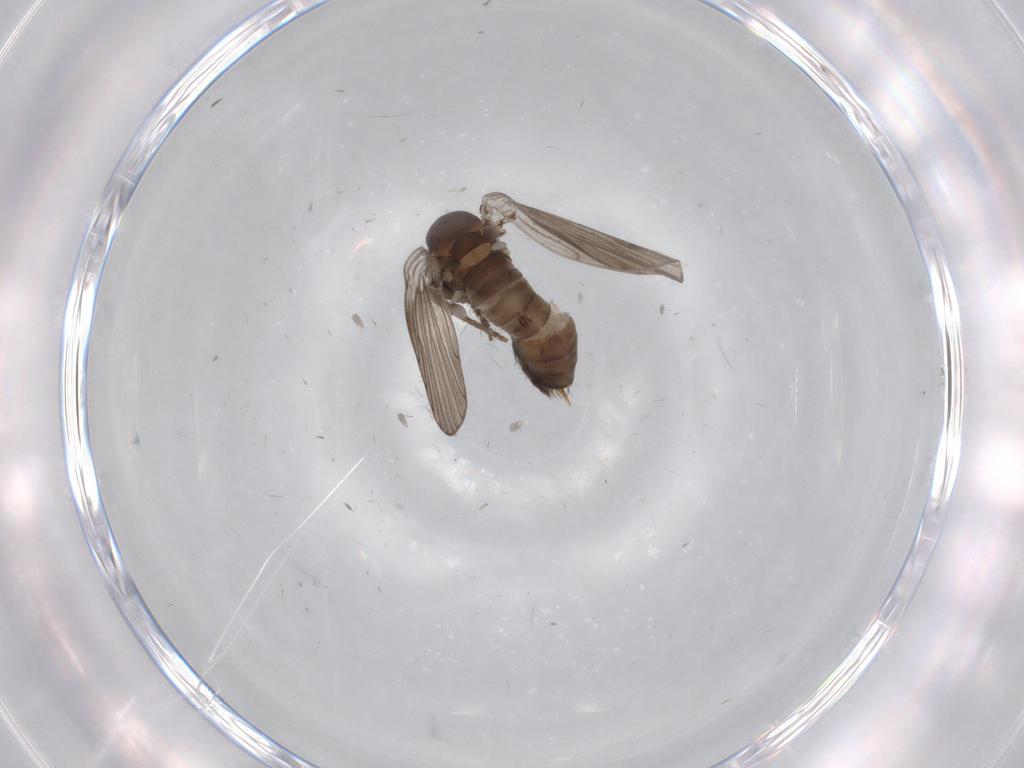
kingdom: Animalia
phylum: Arthropoda
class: Insecta
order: Diptera
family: Psychodidae
